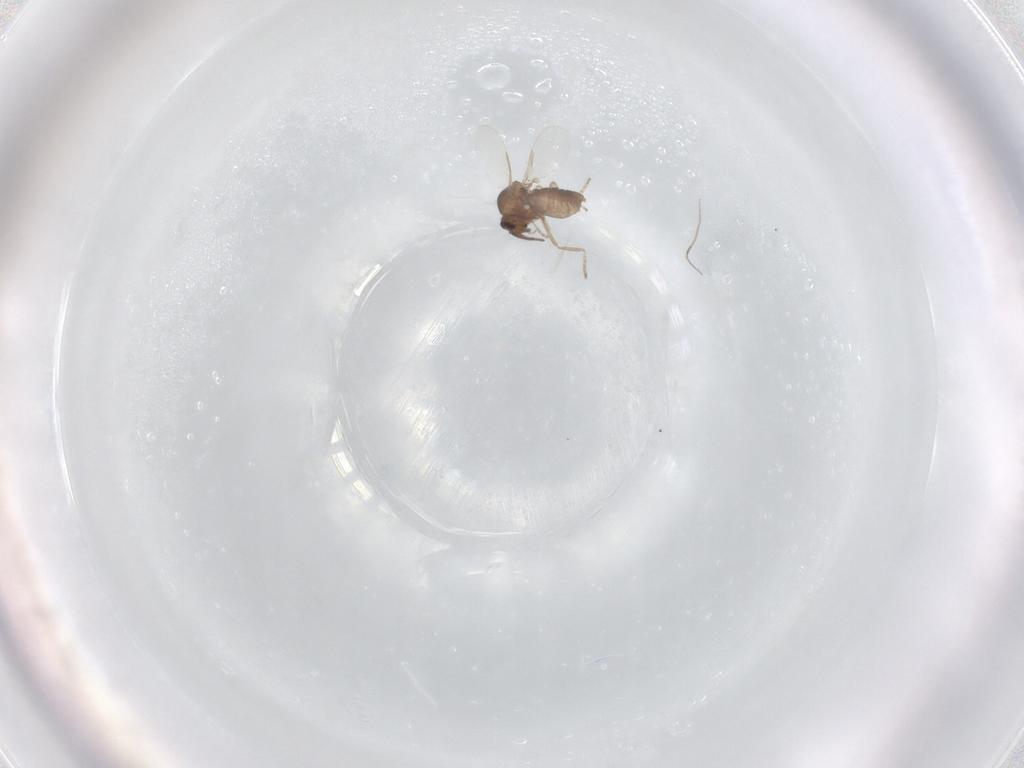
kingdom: Animalia
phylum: Arthropoda
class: Insecta
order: Diptera
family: Ceratopogonidae
